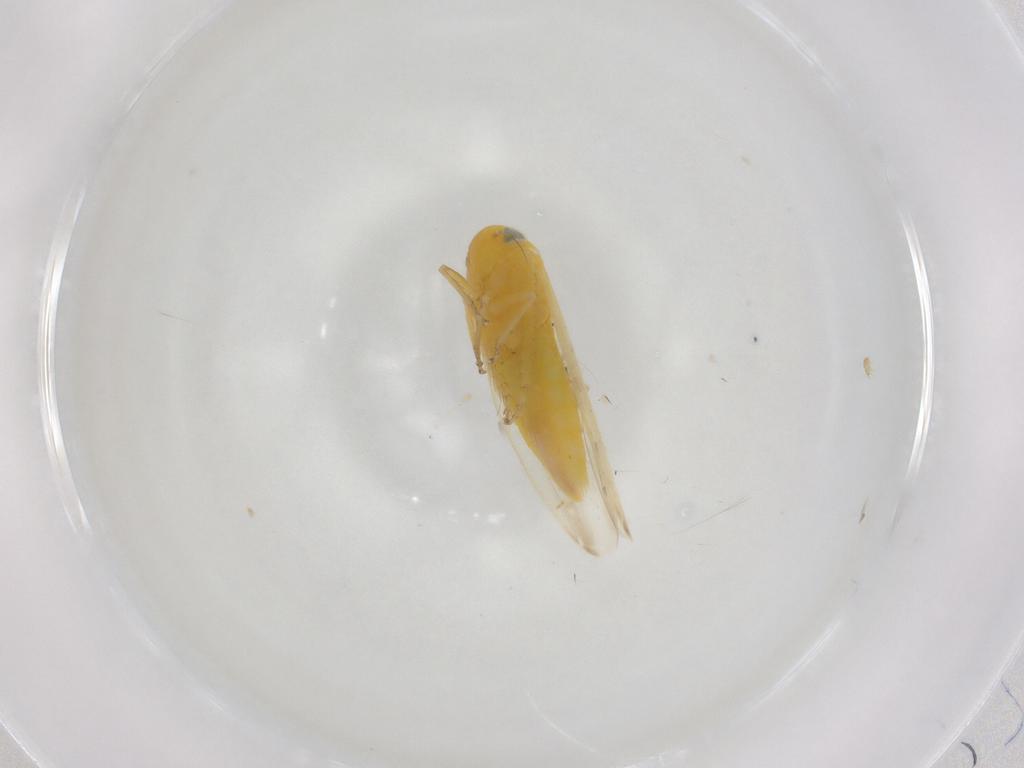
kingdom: Animalia
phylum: Arthropoda
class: Insecta
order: Hemiptera
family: Cicadellidae
